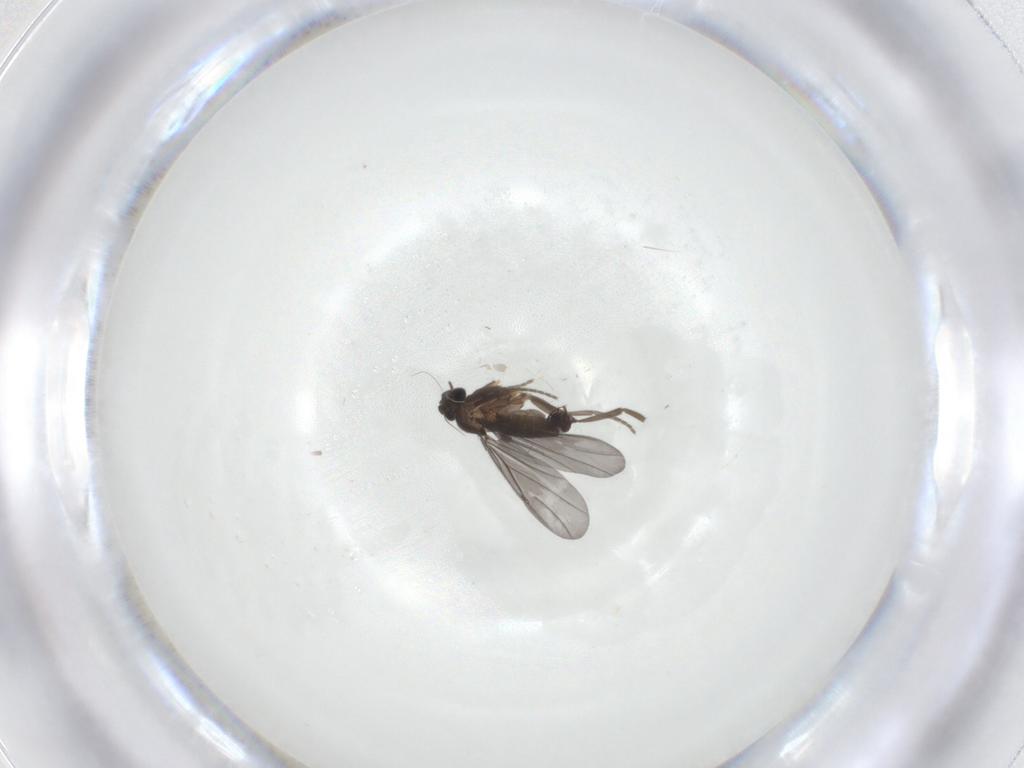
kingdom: Animalia
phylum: Arthropoda
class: Insecta
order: Diptera
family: Phoridae
